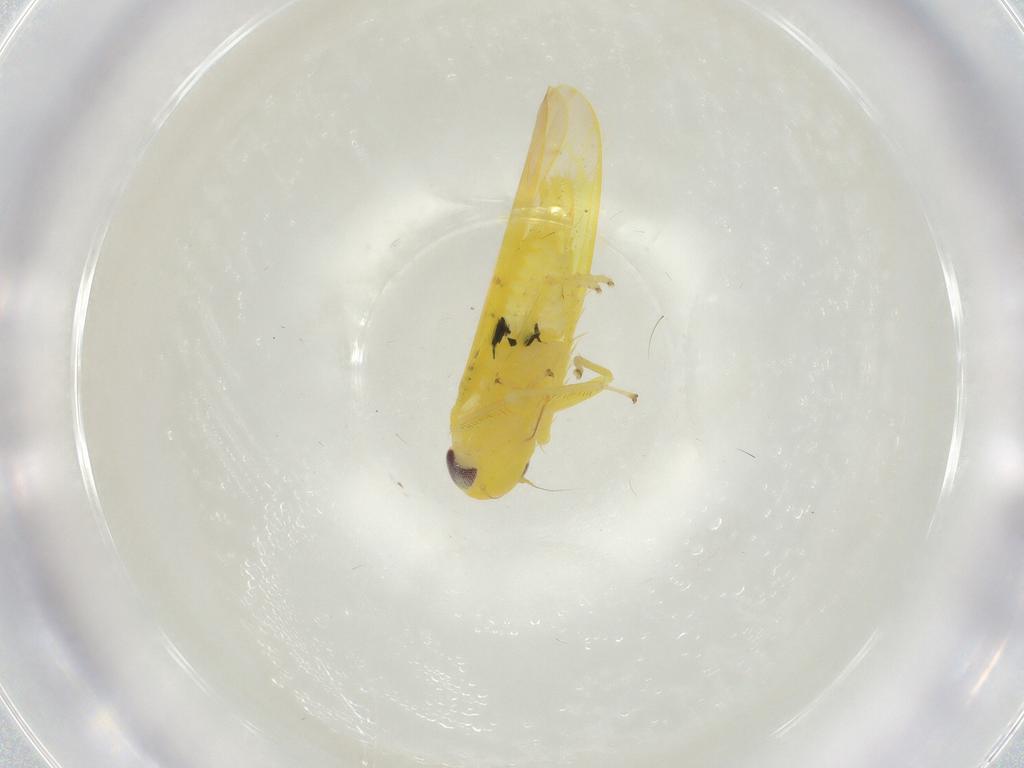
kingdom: Animalia
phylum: Arthropoda
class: Insecta
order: Hemiptera
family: Cicadellidae
